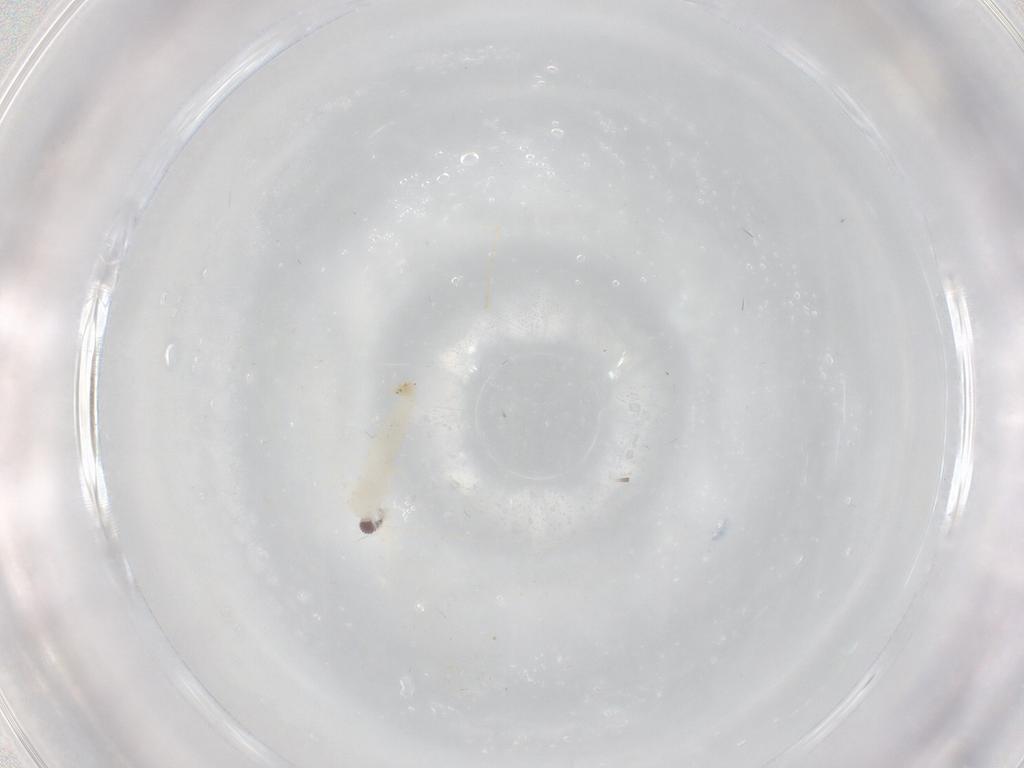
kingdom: Animalia
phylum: Arthropoda
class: Insecta
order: Diptera
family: Cecidomyiidae
